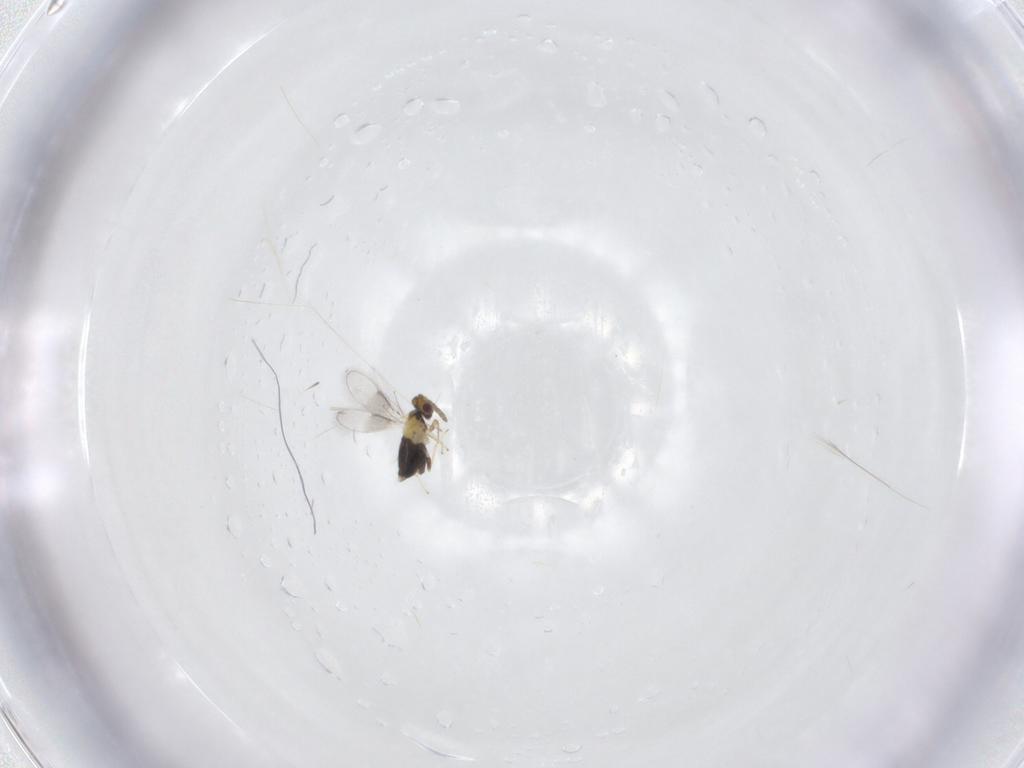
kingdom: Animalia
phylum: Arthropoda
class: Insecta
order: Hymenoptera
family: Aphelinidae
